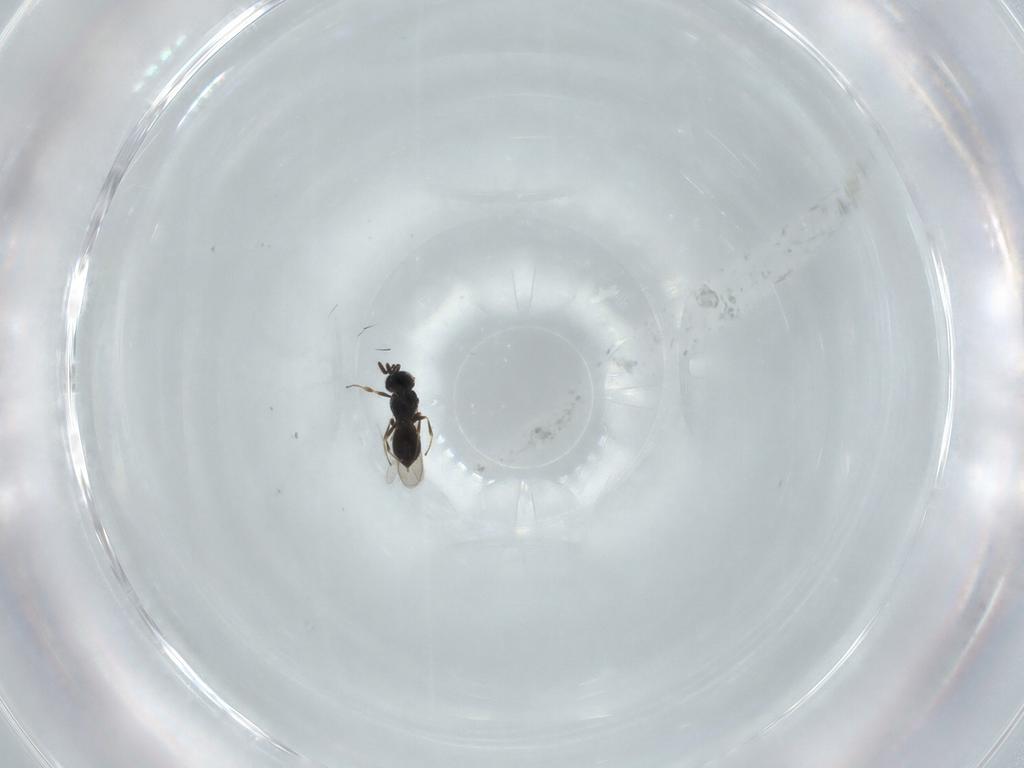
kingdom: Animalia
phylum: Arthropoda
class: Insecta
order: Hymenoptera
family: Scelionidae
